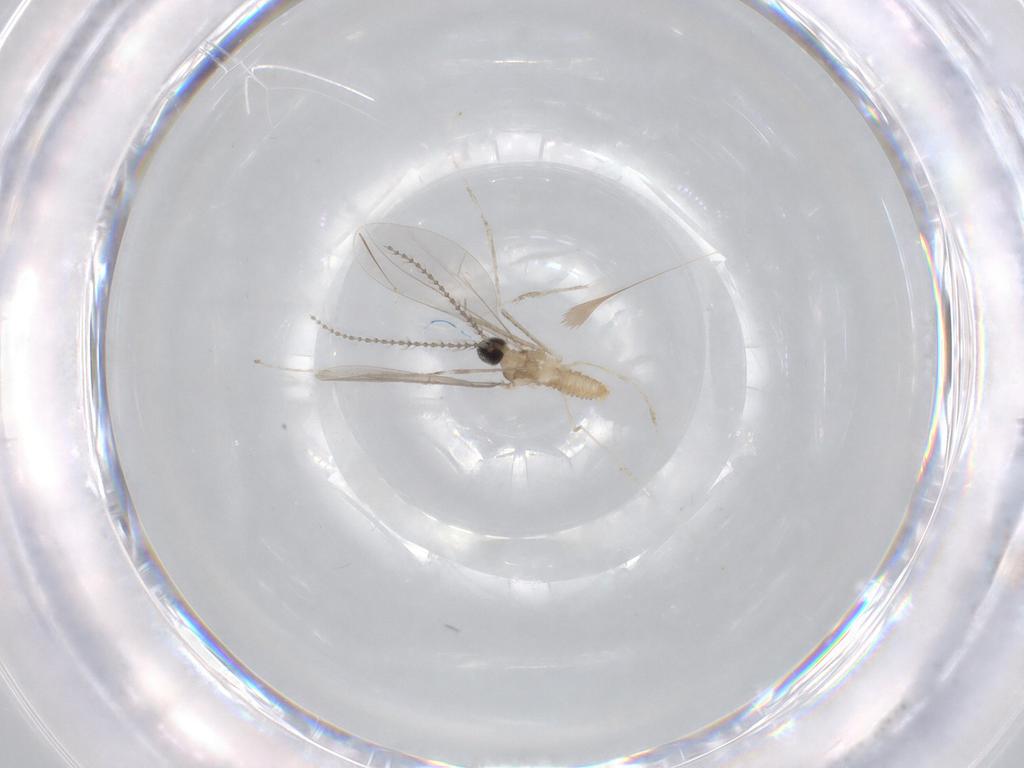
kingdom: Animalia
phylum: Arthropoda
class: Insecta
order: Diptera
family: Cecidomyiidae
